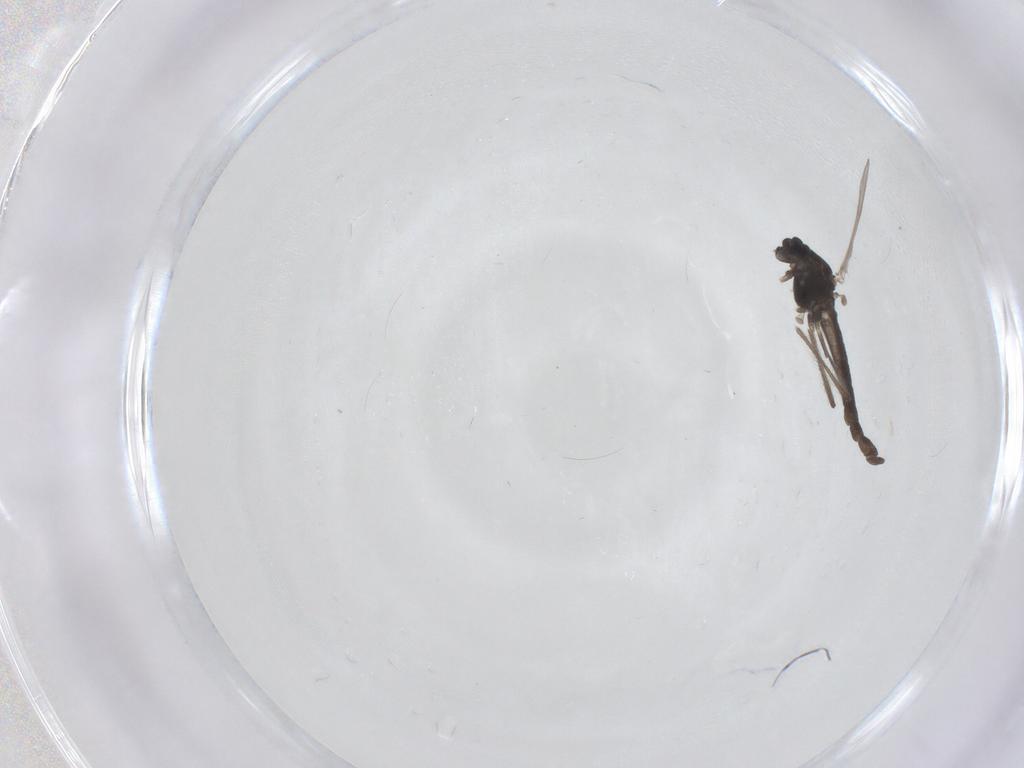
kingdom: Animalia
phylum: Arthropoda
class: Insecta
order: Diptera
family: Chironomidae
